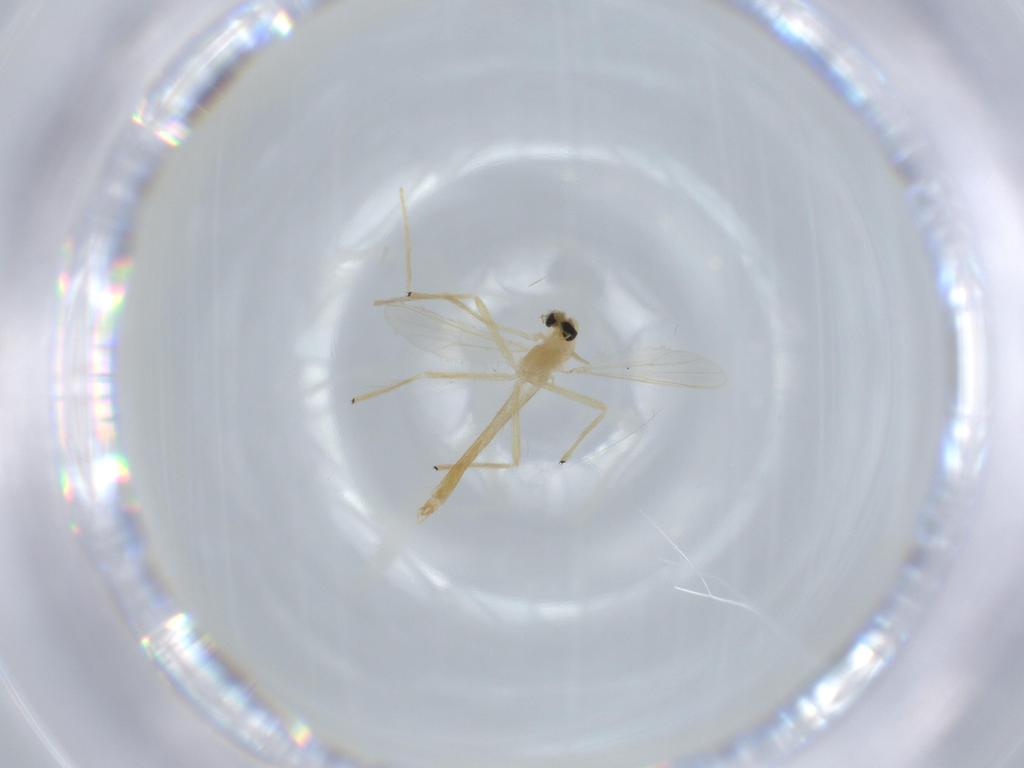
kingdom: Animalia
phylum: Arthropoda
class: Insecta
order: Diptera
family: Chironomidae
